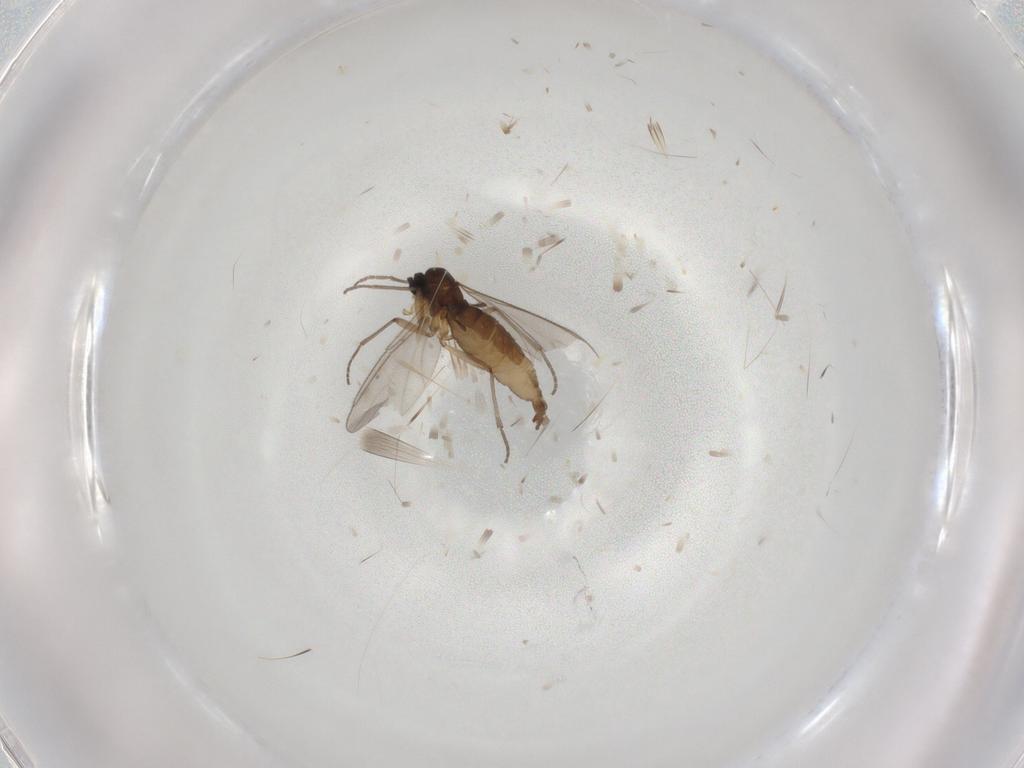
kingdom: Animalia
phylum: Arthropoda
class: Insecta
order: Diptera
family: Sciaridae
